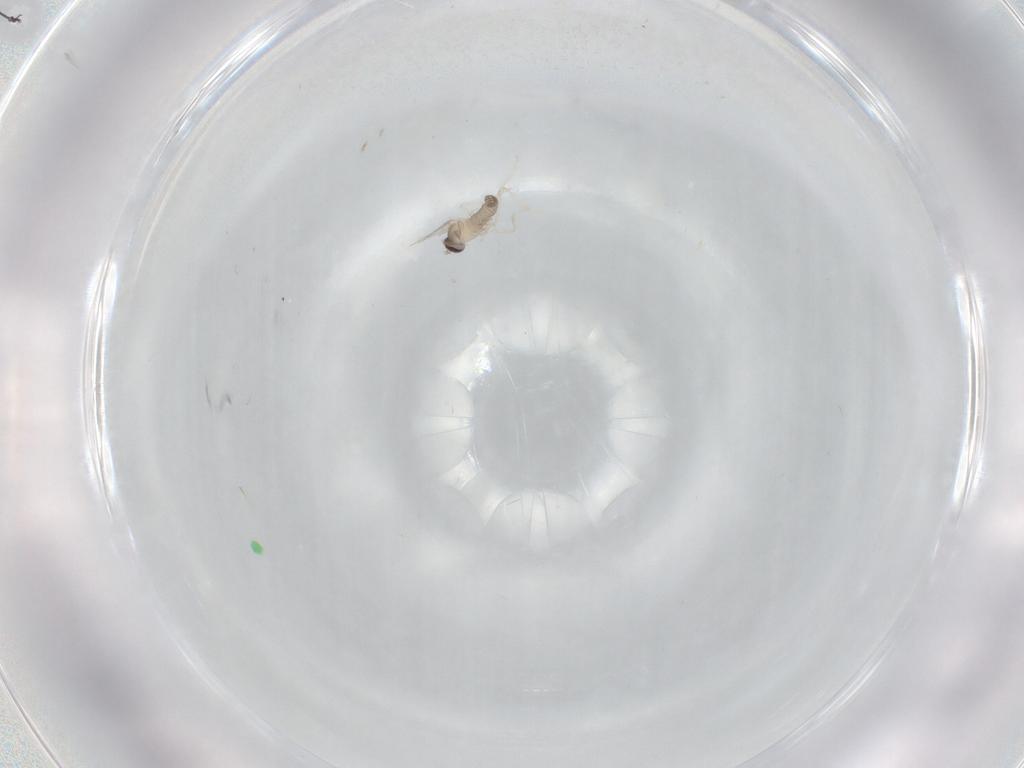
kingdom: Animalia
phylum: Arthropoda
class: Insecta
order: Diptera
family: Cecidomyiidae
